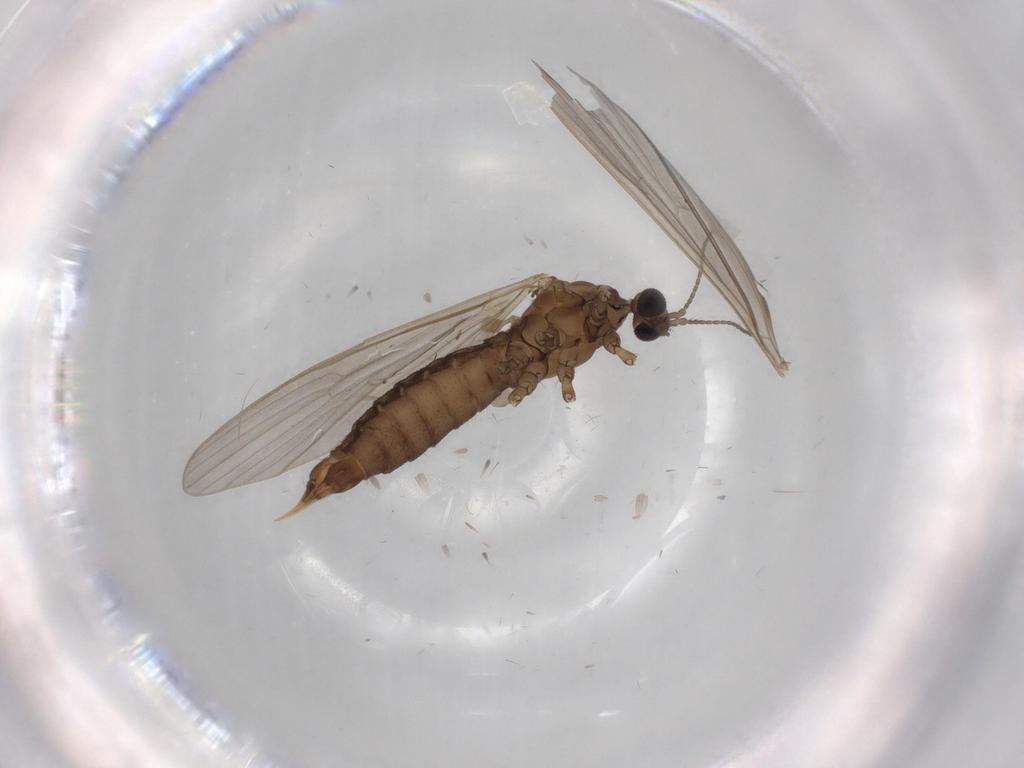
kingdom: Animalia
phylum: Arthropoda
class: Insecta
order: Diptera
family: Limoniidae
